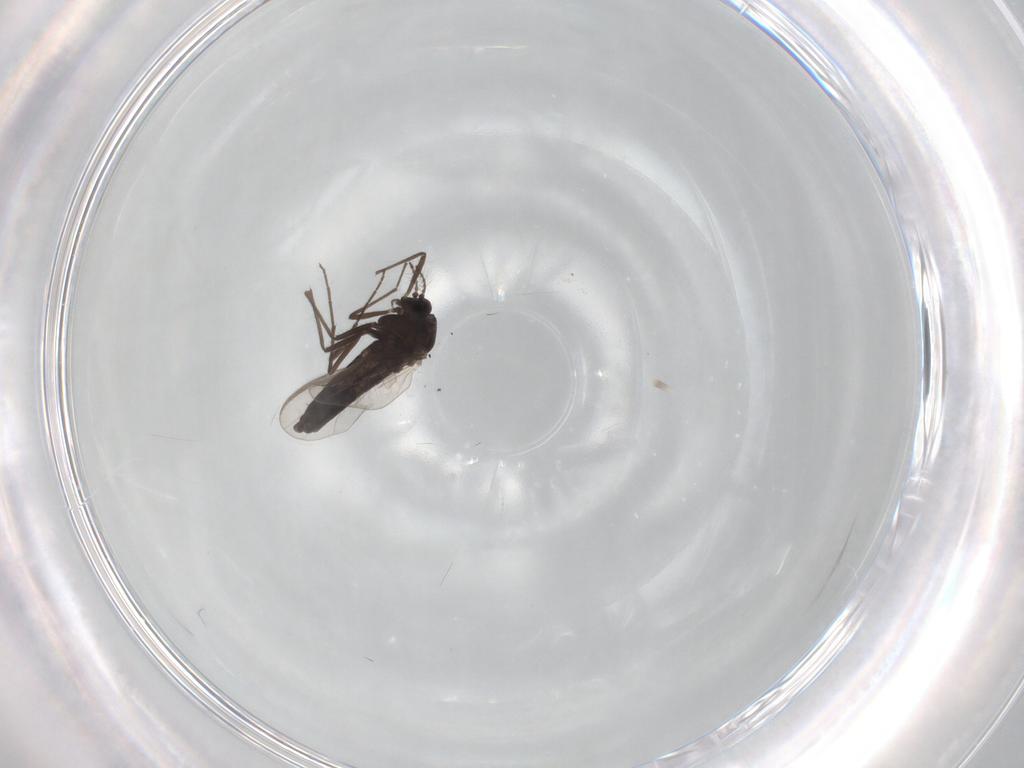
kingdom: Animalia
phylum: Arthropoda
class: Insecta
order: Diptera
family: Chironomidae
